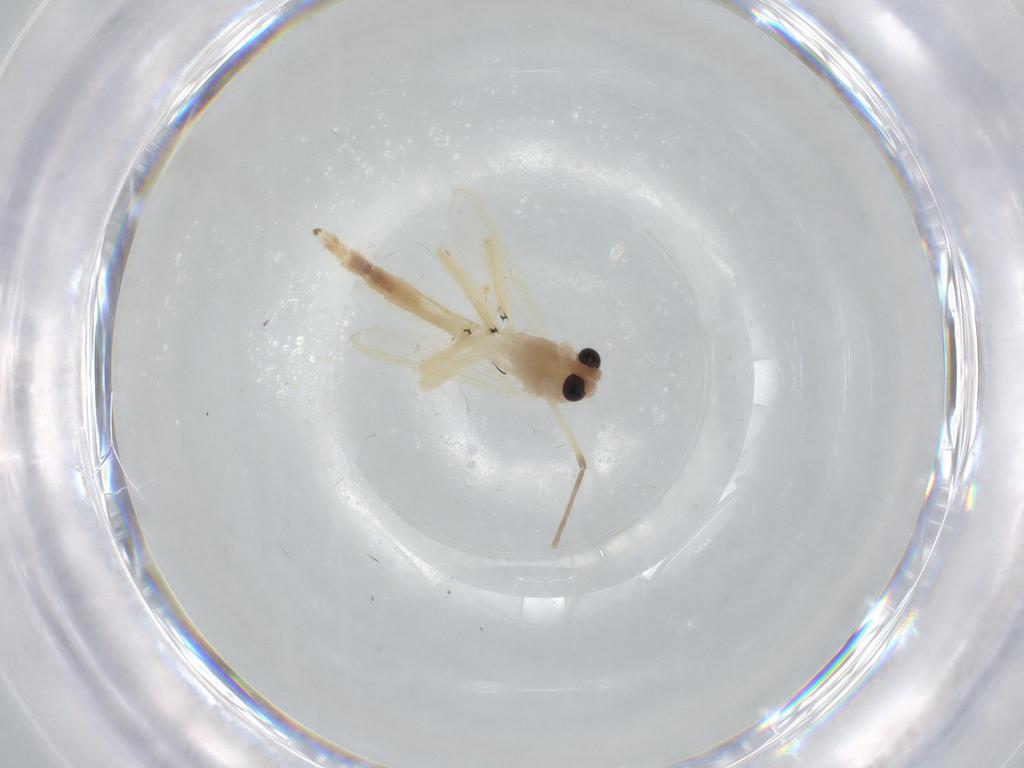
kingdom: Animalia
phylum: Arthropoda
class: Insecta
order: Diptera
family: Chironomidae
